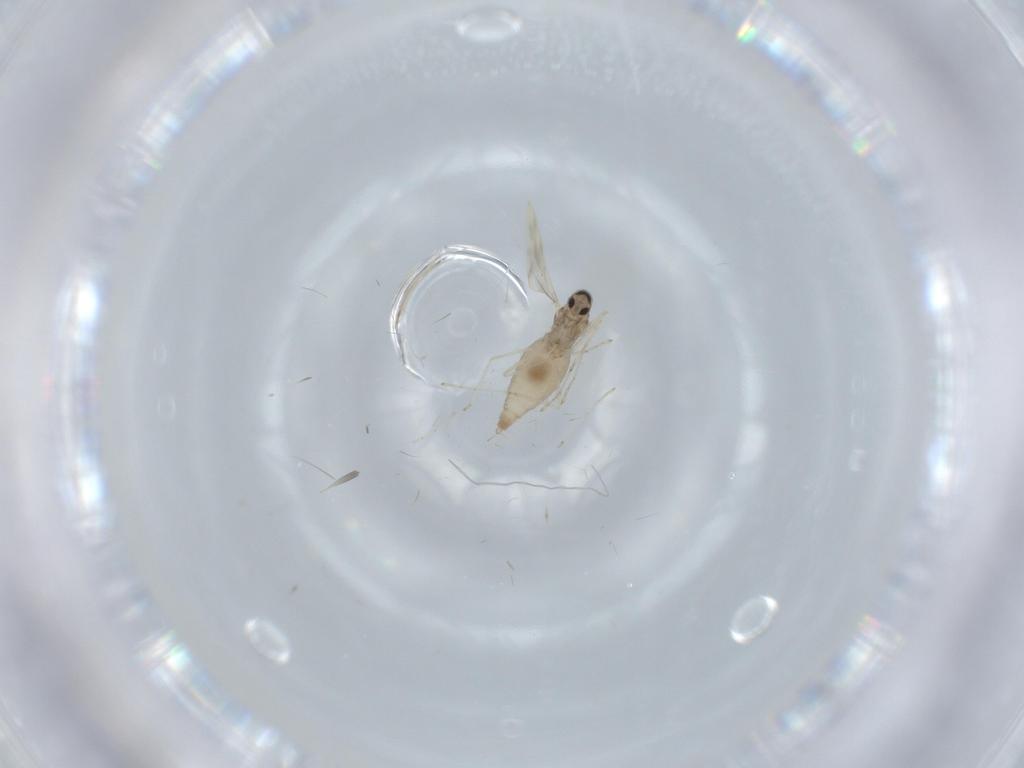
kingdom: Animalia
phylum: Arthropoda
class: Insecta
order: Diptera
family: Cecidomyiidae
